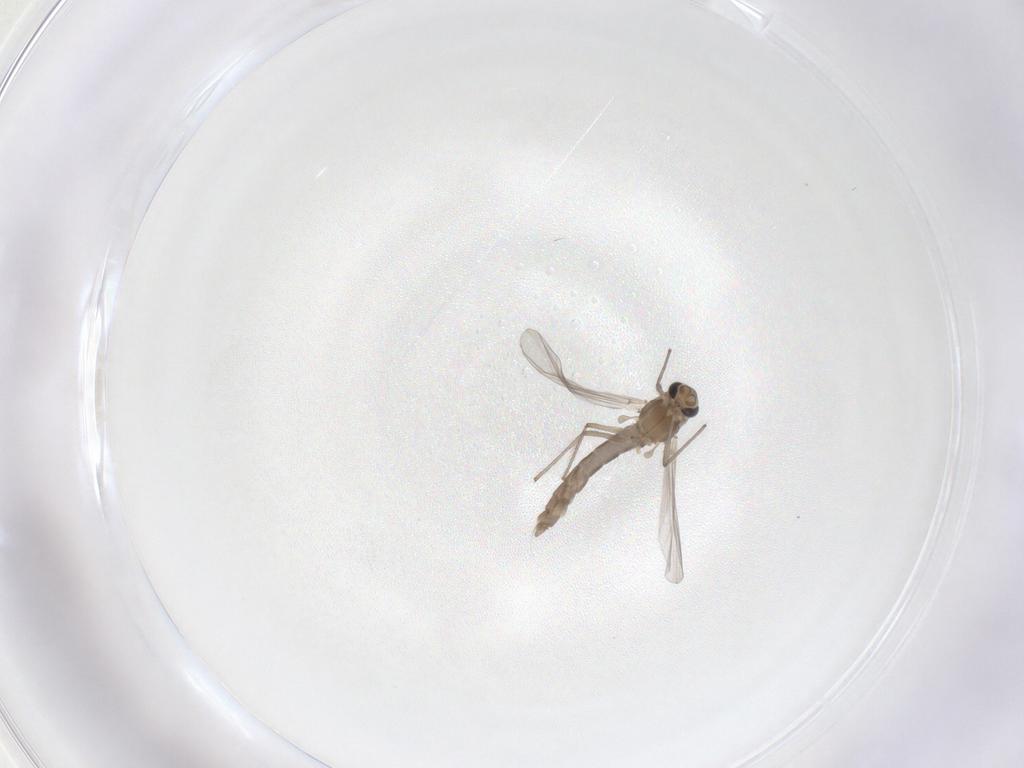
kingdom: Animalia
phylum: Arthropoda
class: Insecta
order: Diptera
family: Chironomidae
